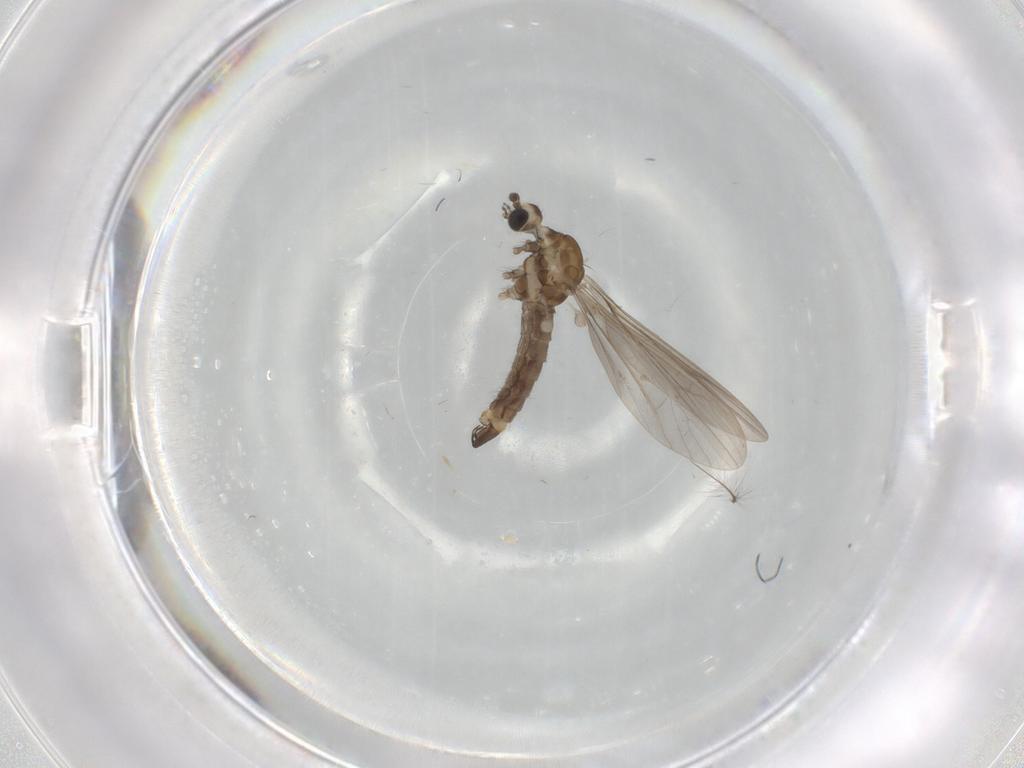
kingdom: Animalia
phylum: Arthropoda
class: Insecta
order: Diptera
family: Limoniidae
